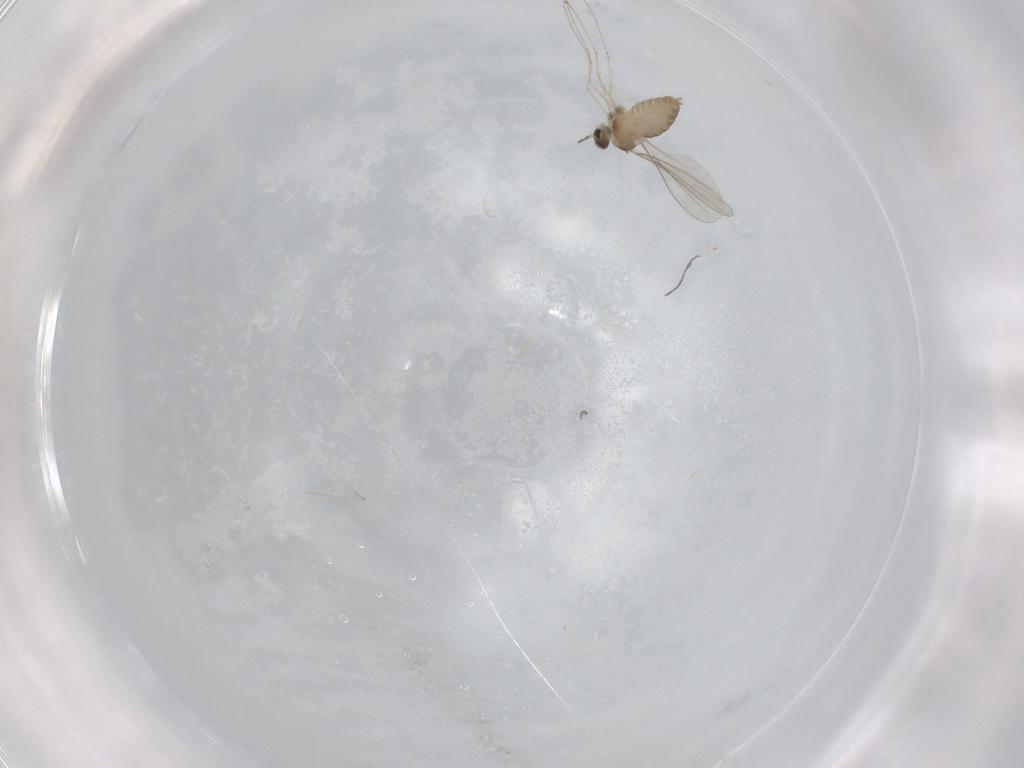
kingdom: Animalia
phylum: Arthropoda
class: Insecta
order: Diptera
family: Cecidomyiidae
